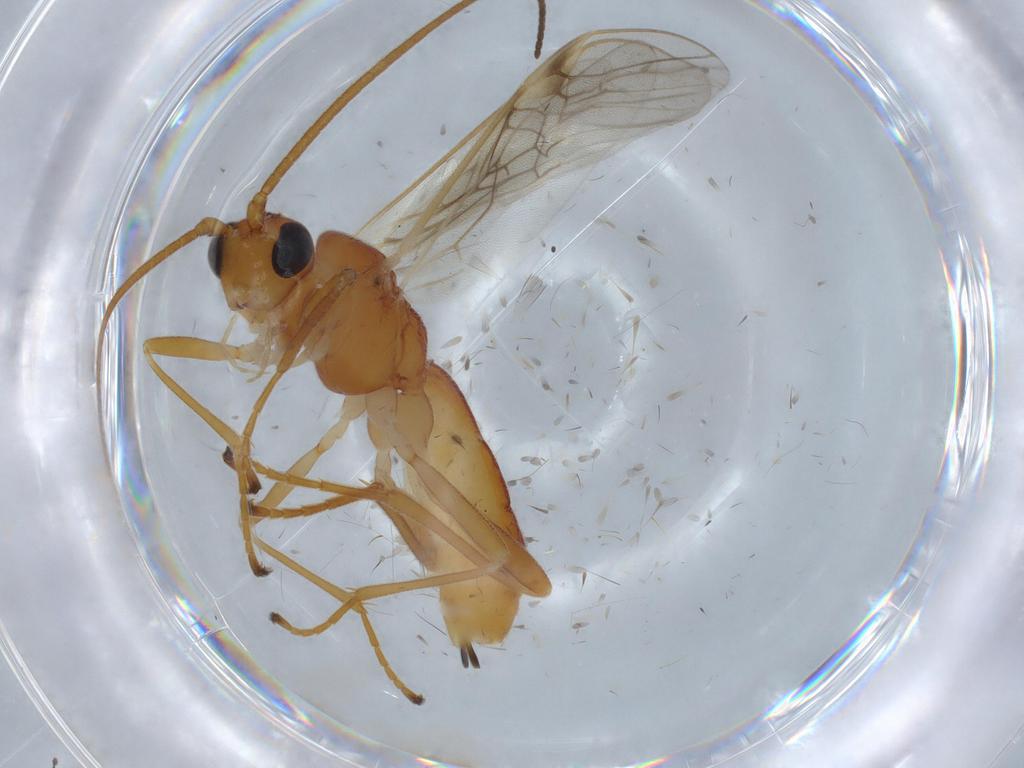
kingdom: Animalia
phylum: Arthropoda
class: Insecta
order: Hymenoptera
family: Braconidae
